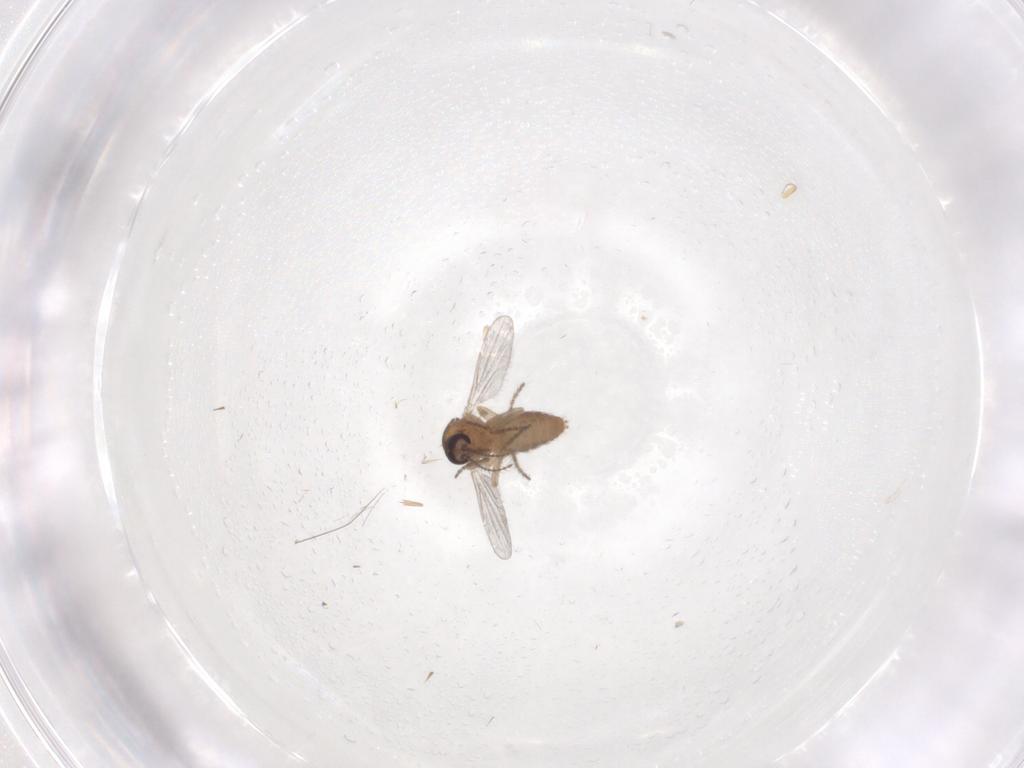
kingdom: Animalia
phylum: Arthropoda
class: Insecta
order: Diptera
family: Ceratopogonidae
